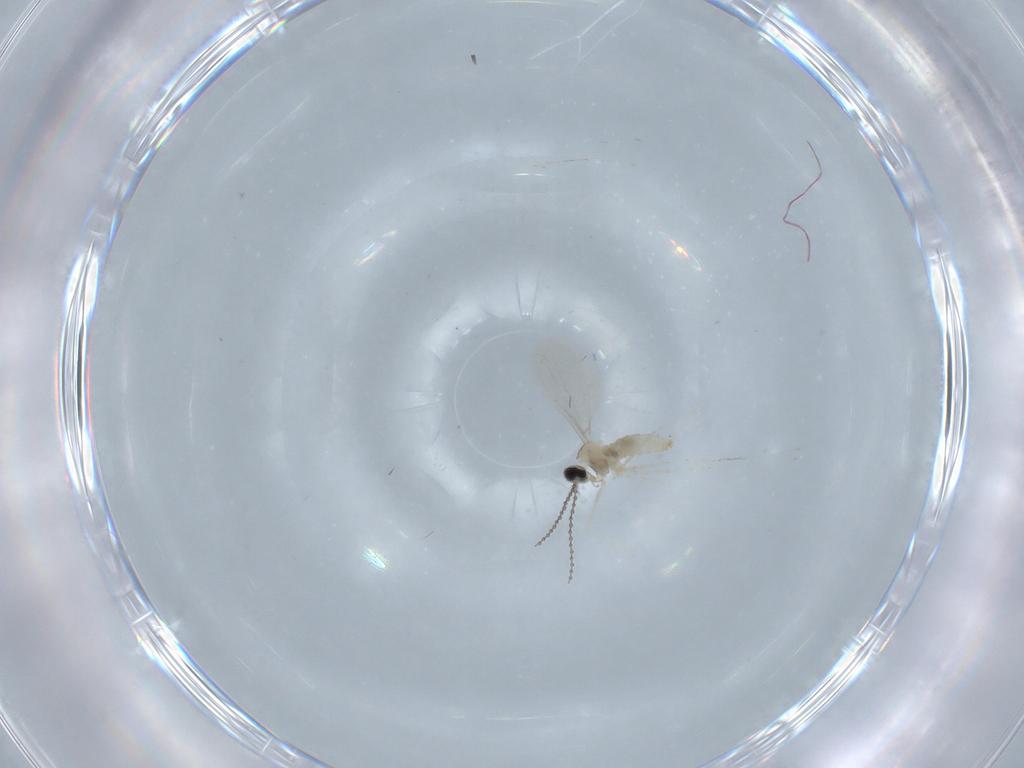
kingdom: Animalia
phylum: Arthropoda
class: Insecta
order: Diptera
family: Cecidomyiidae
